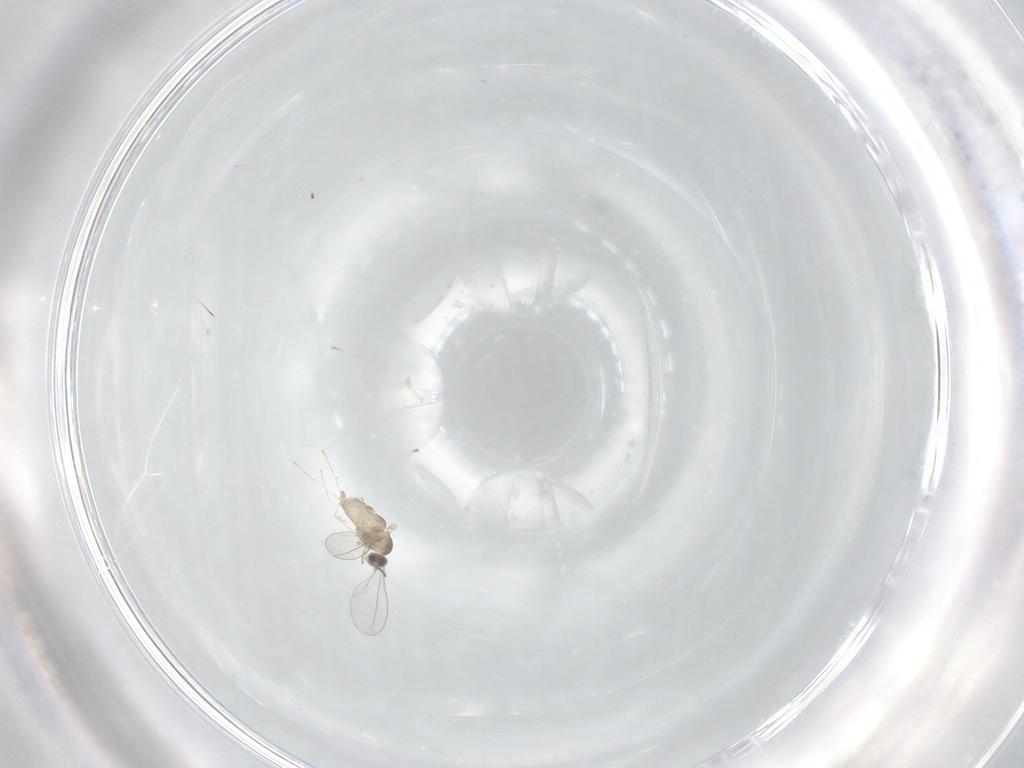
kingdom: Animalia
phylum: Arthropoda
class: Insecta
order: Diptera
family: Cecidomyiidae
